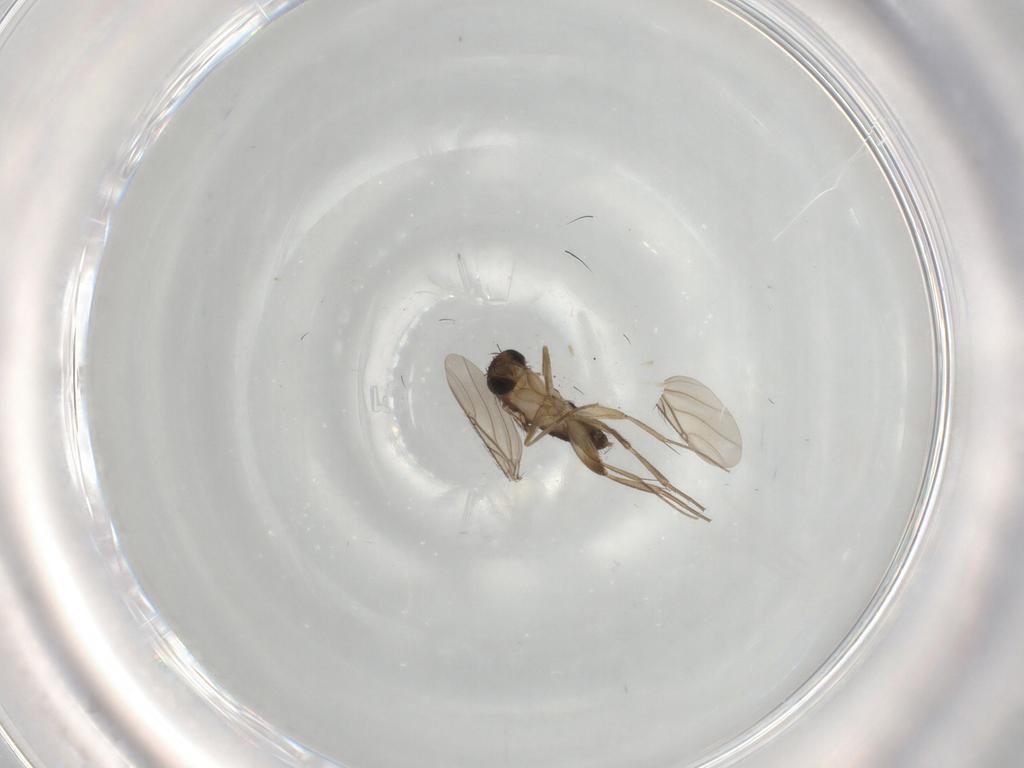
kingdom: Animalia
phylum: Arthropoda
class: Insecta
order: Diptera
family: Phoridae
